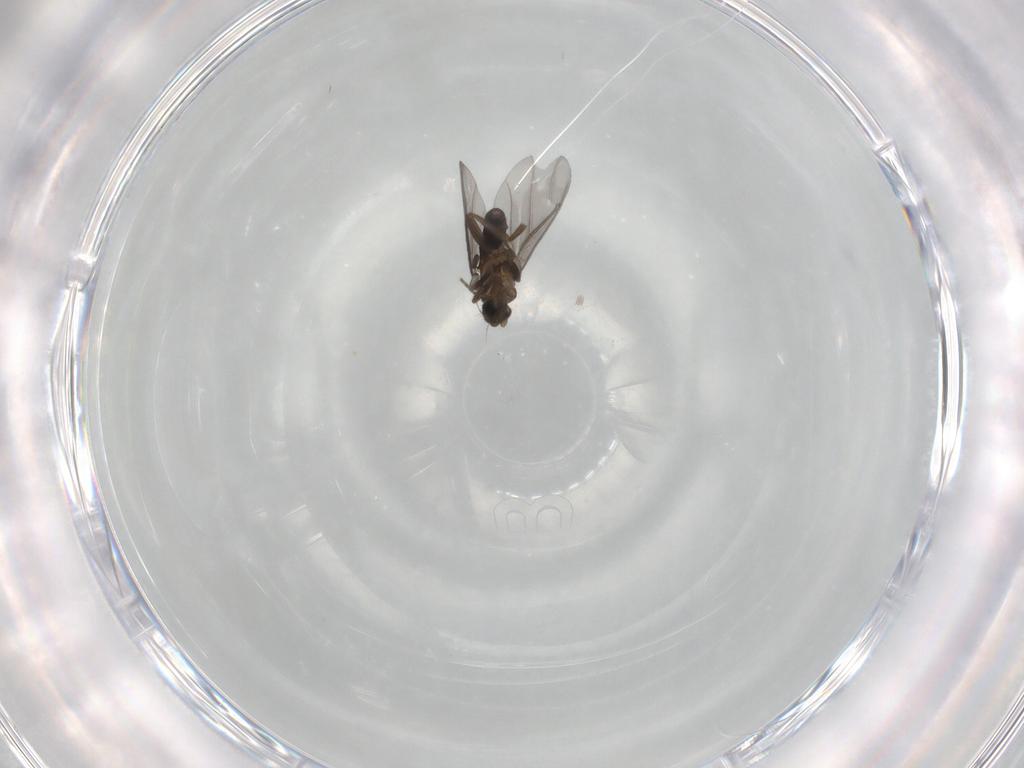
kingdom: Animalia
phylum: Arthropoda
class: Insecta
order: Diptera
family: Phoridae
